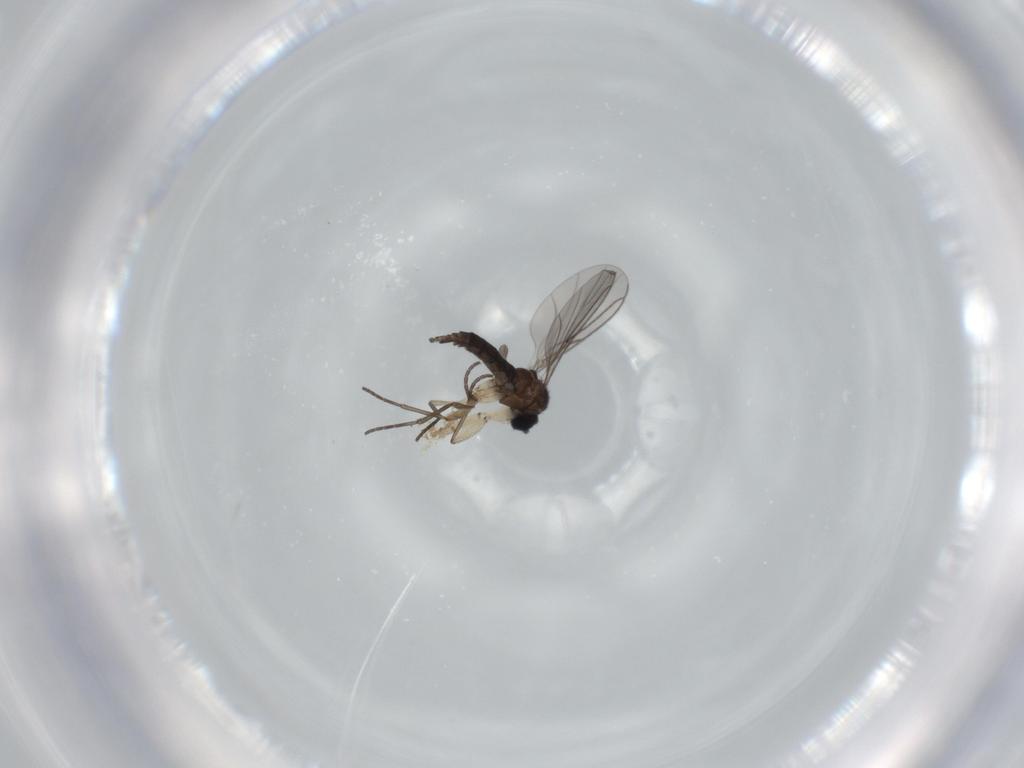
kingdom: Animalia
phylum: Arthropoda
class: Insecta
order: Diptera
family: Sciaridae
